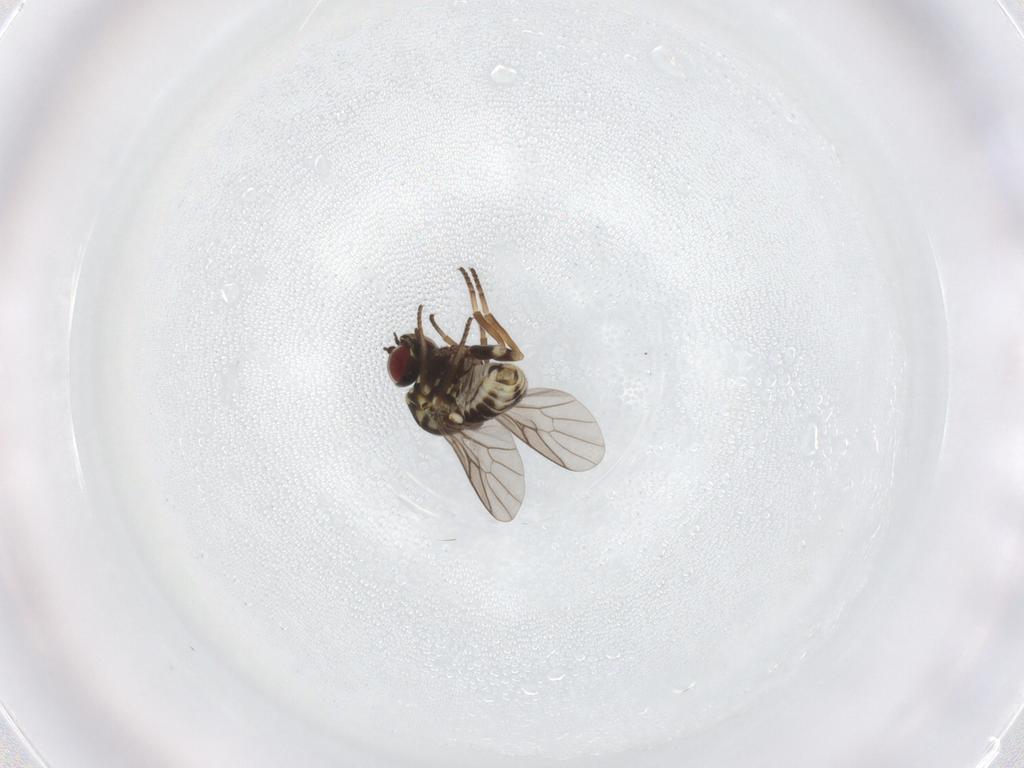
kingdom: Animalia
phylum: Arthropoda
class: Insecta
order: Diptera
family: Bombyliidae
